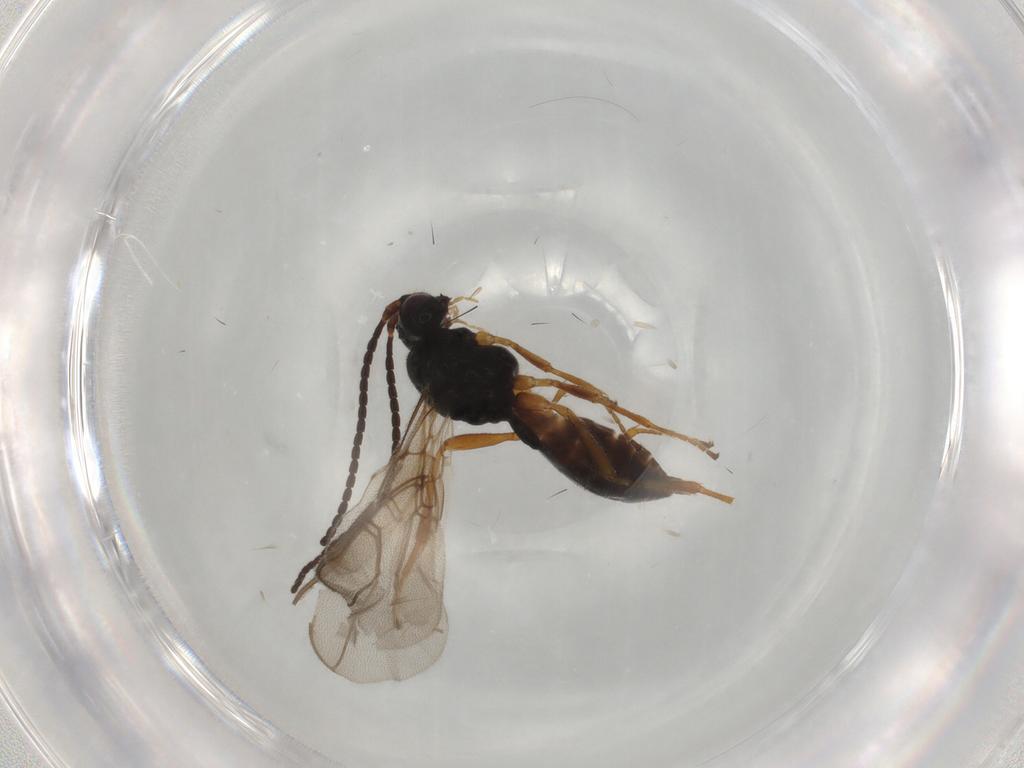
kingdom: Animalia
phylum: Arthropoda
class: Insecta
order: Hymenoptera
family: Braconidae
